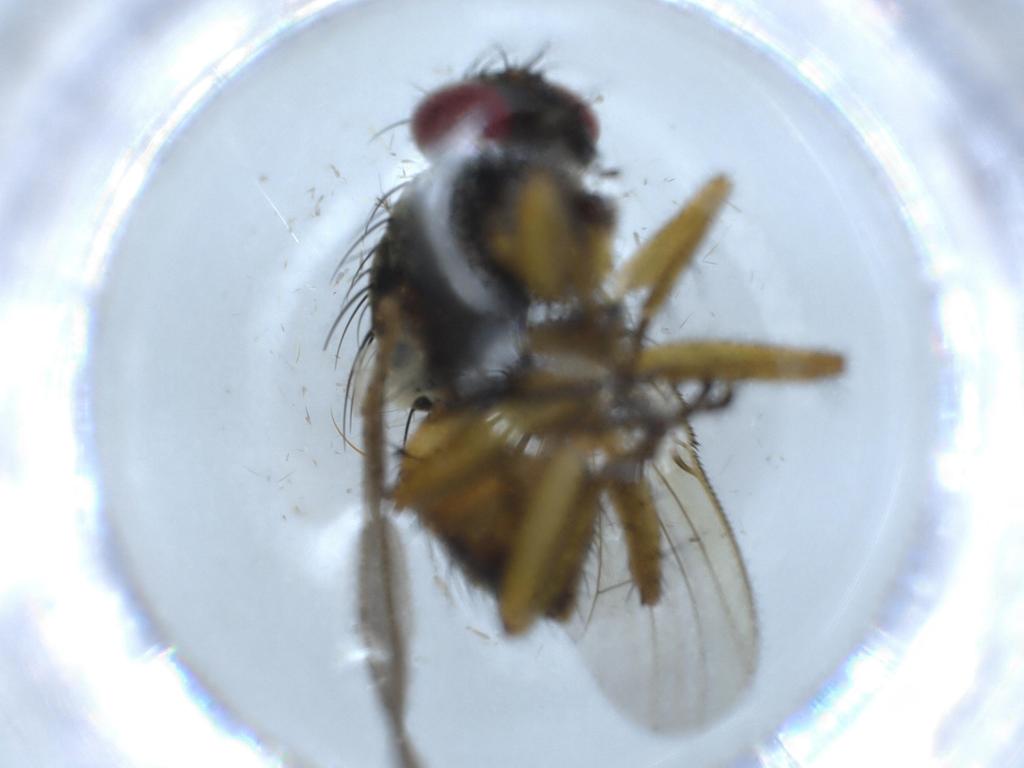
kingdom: Animalia
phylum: Arthropoda
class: Insecta
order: Diptera
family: Muscidae
